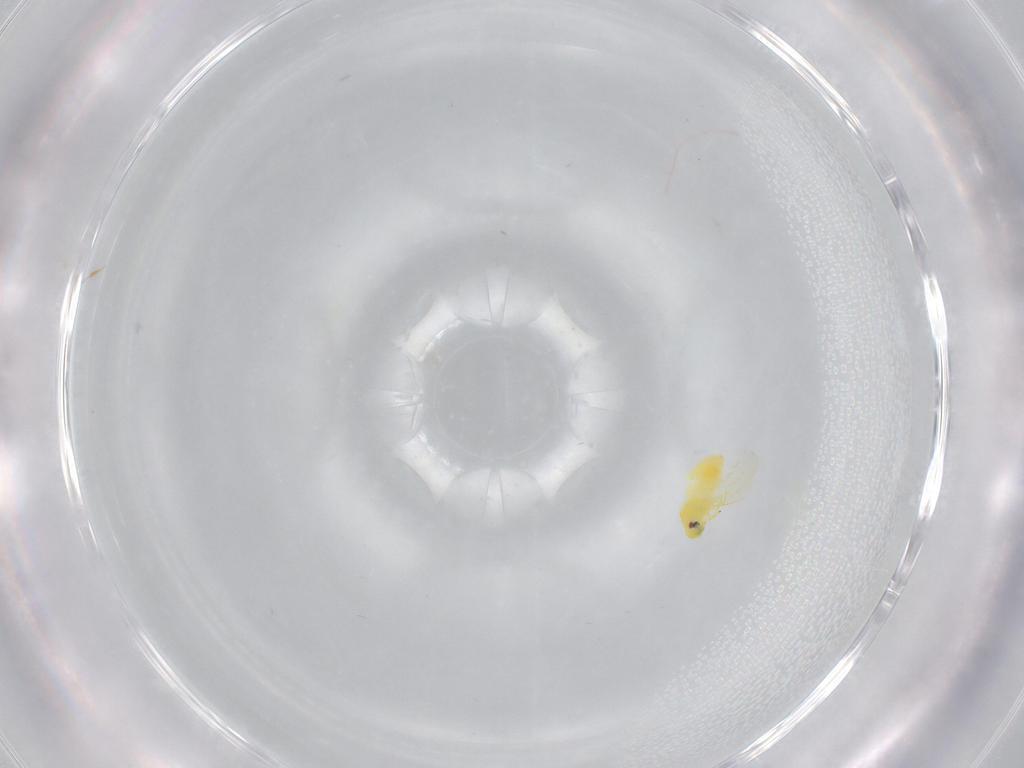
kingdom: Animalia
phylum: Arthropoda
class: Insecta
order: Hemiptera
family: Aleyrodidae
